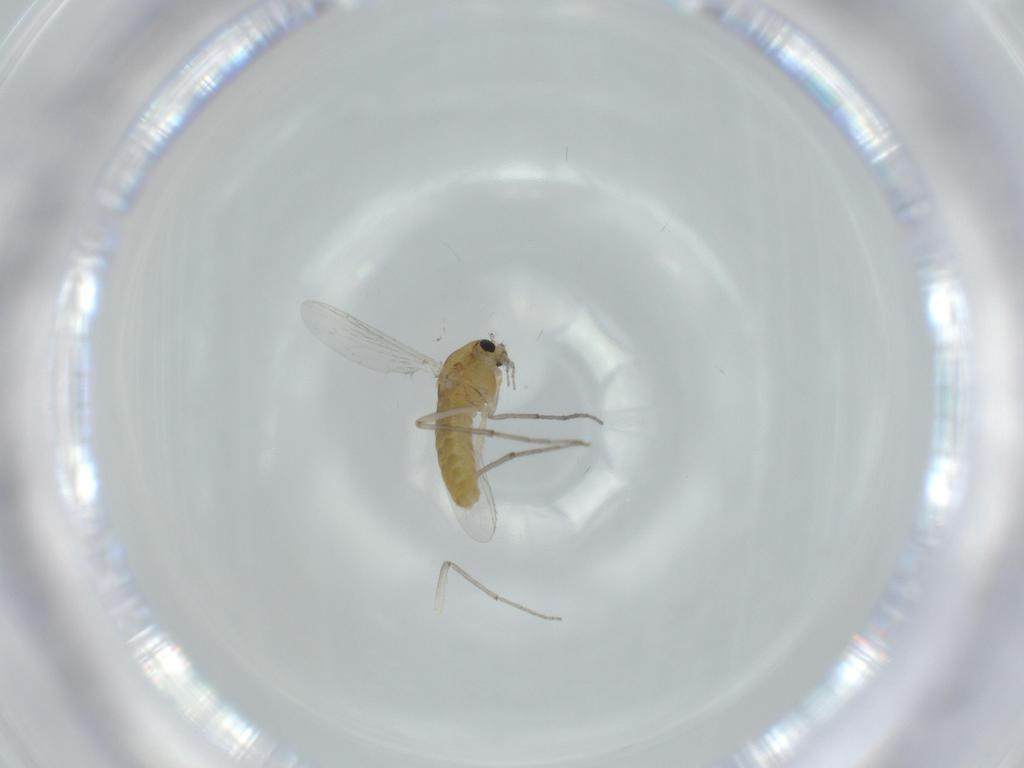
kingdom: Animalia
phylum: Arthropoda
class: Insecta
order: Diptera
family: Chironomidae
